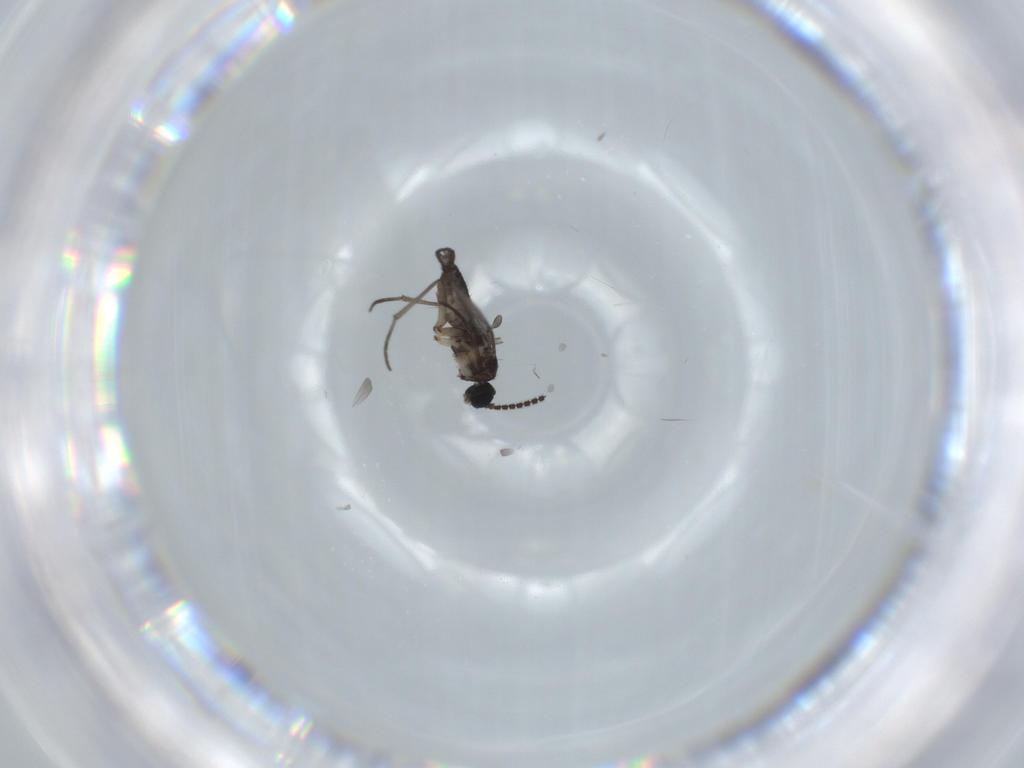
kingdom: Animalia
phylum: Arthropoda
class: Insecta
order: Diptera
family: Sciaridae
